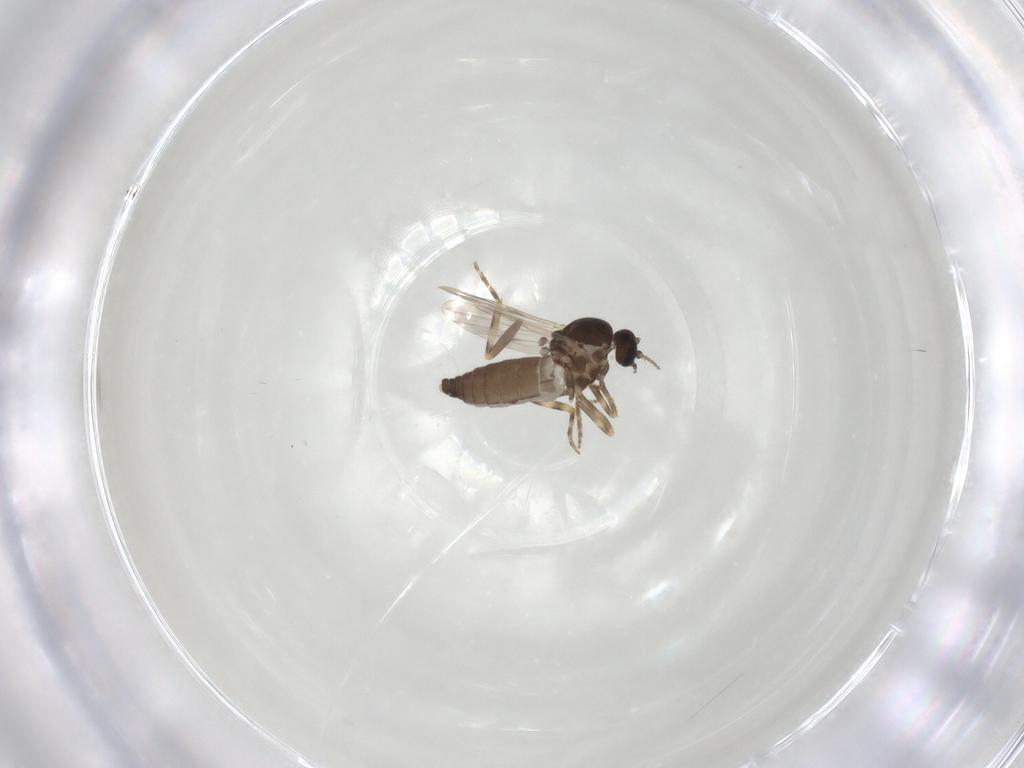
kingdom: Animalia
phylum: Arthropoda
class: Insecta
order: Diptera
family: Ceratopogonidae
